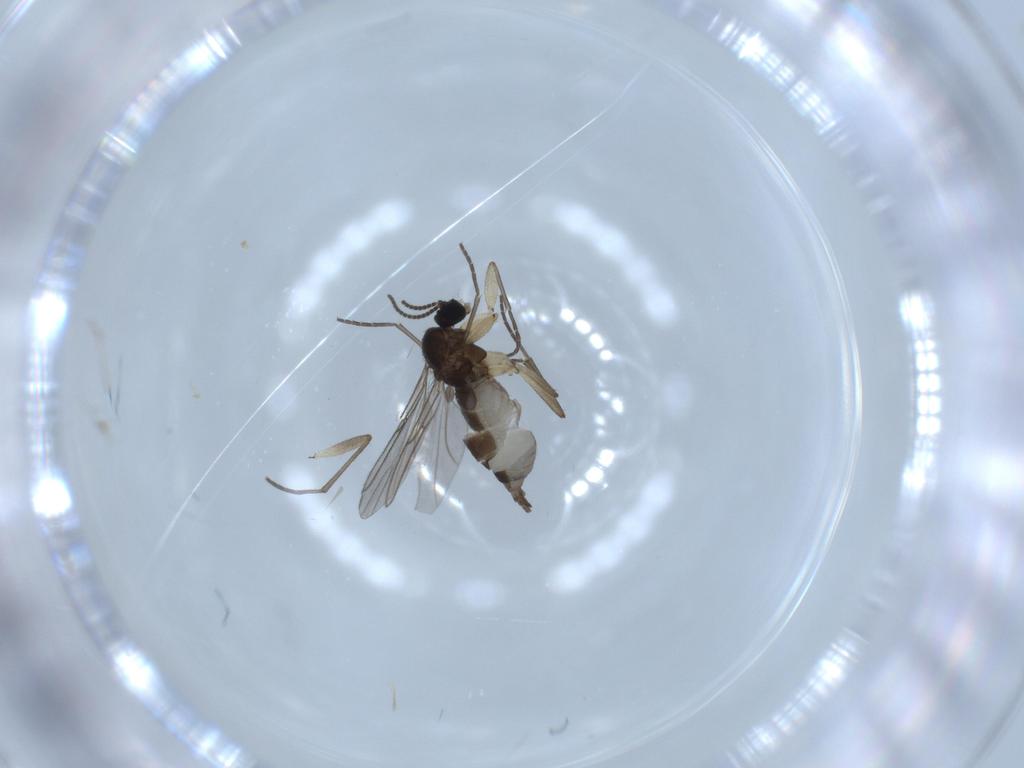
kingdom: Animalia
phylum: Arthropoda
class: Insecta
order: Diptera
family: Sciaridae
